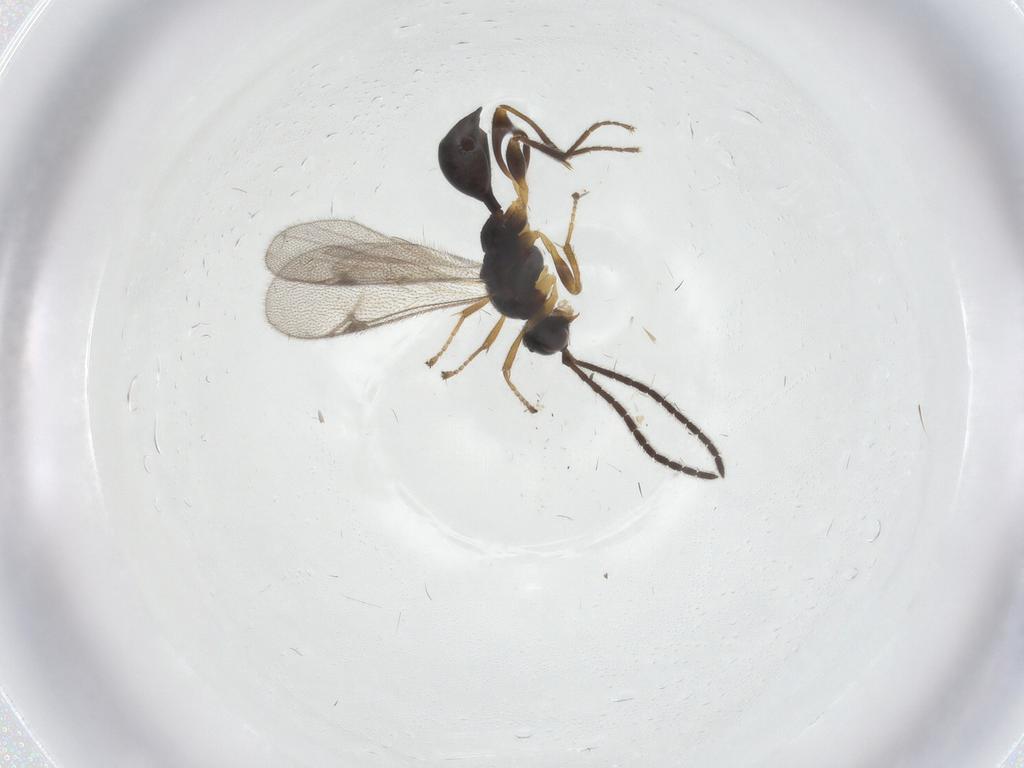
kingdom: Animalia
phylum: Arthropoda
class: Insecta
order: Hymenoptera
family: Proctotrupidae
